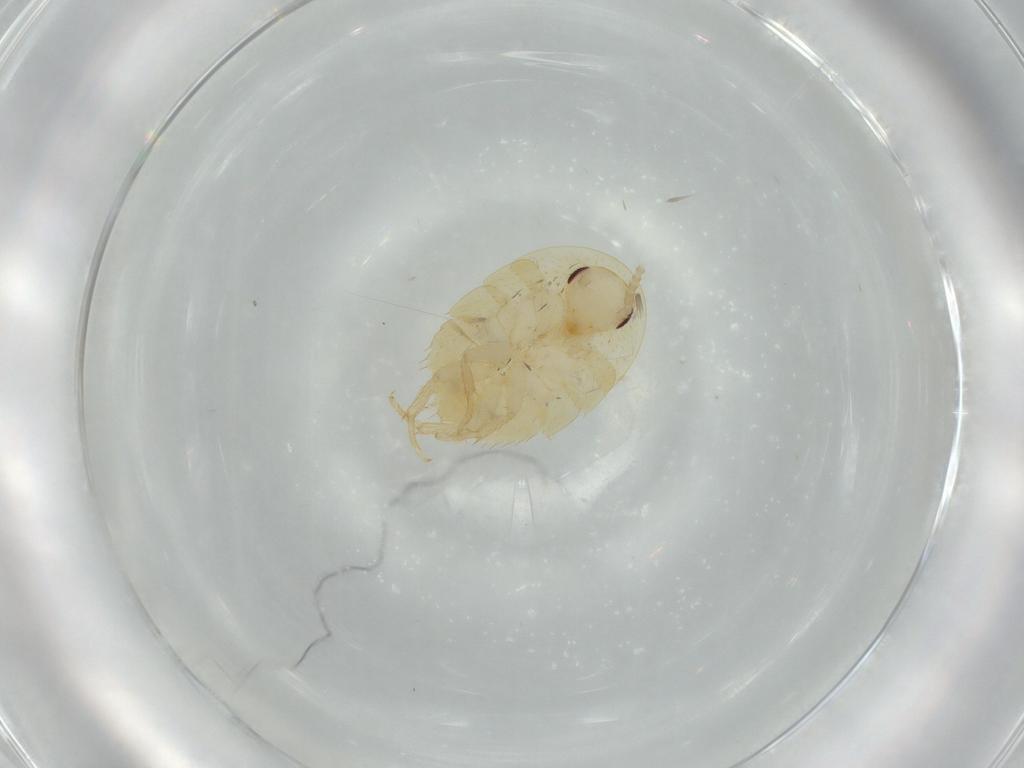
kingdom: Animalia
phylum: Arthropoda
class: Insecta
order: Blattodea
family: Ectobiidae
